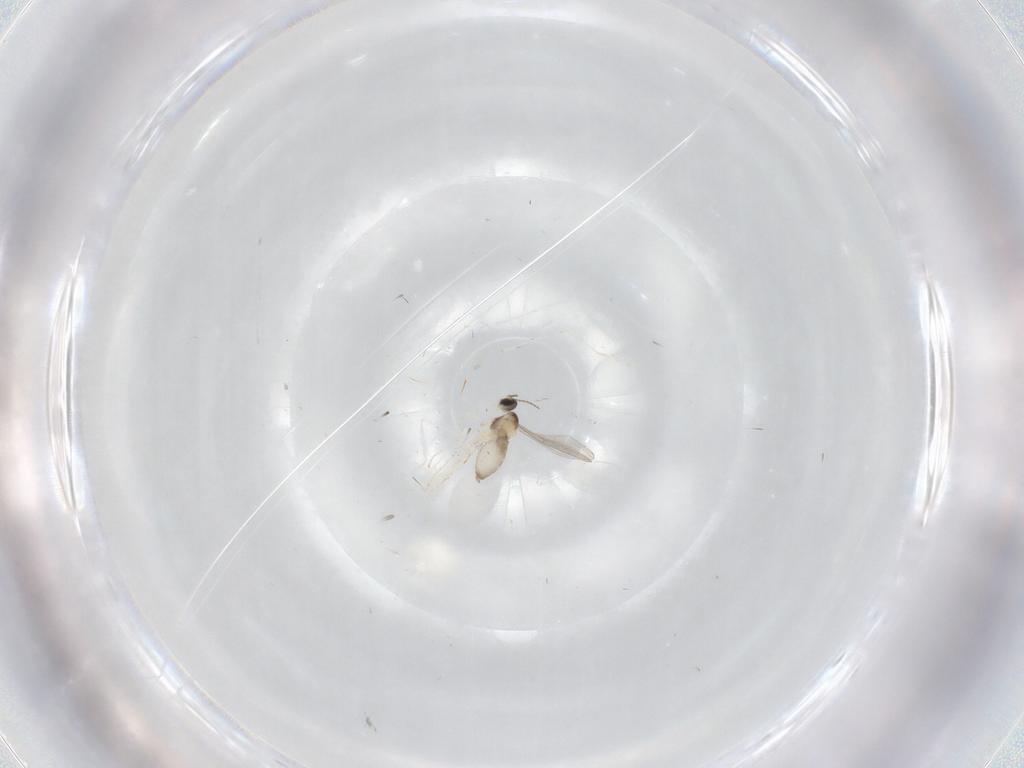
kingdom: Animalia
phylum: Arthropoda
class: Insecta
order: Diptera
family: Cecidomyiidae
